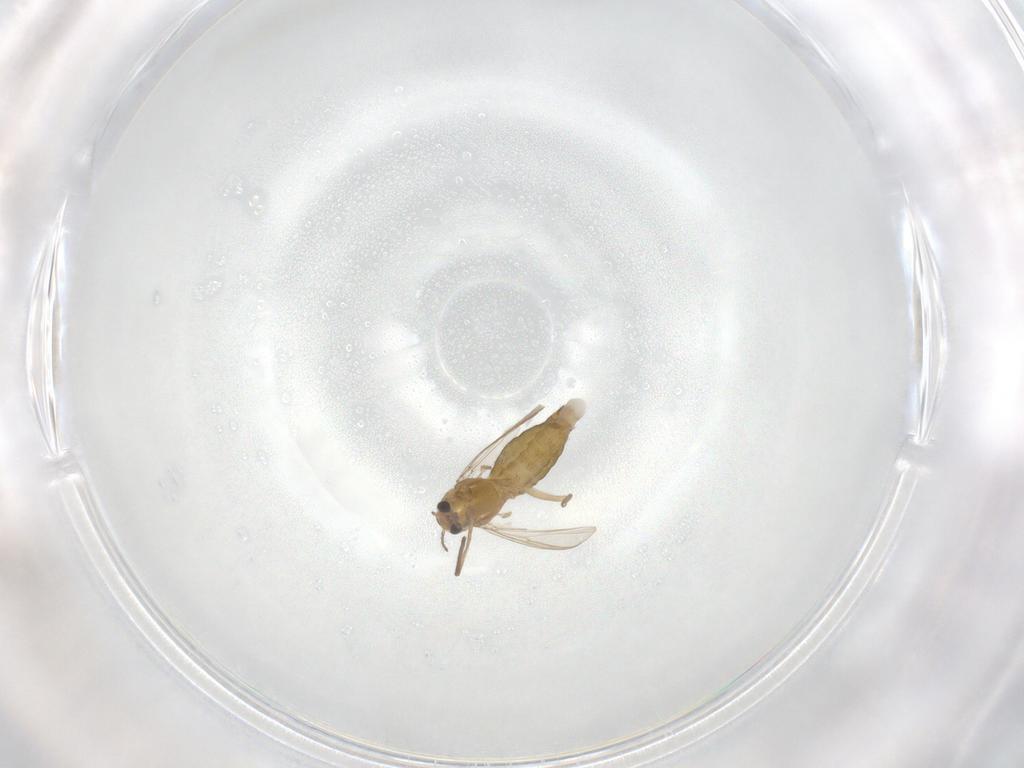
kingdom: Animalia
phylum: Arthropoda
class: Insecta
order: Diptera
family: Chironomidae
